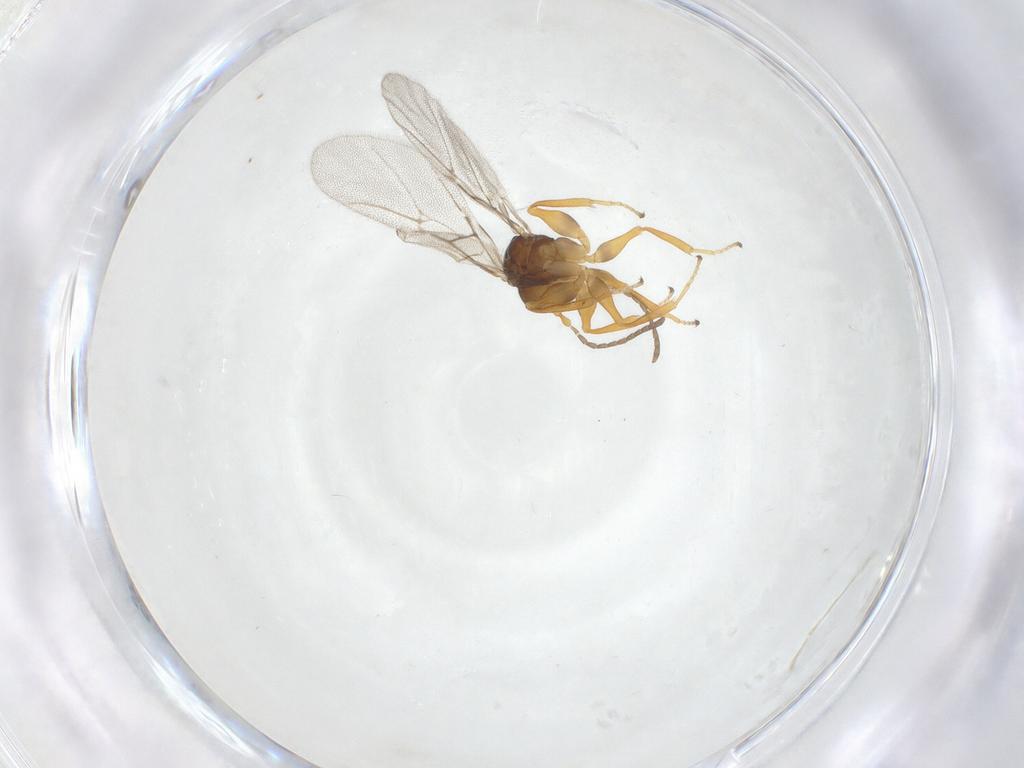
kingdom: Animalia
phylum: Arthropoda
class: Insecta
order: Hymenoptera
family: Cynipidae
